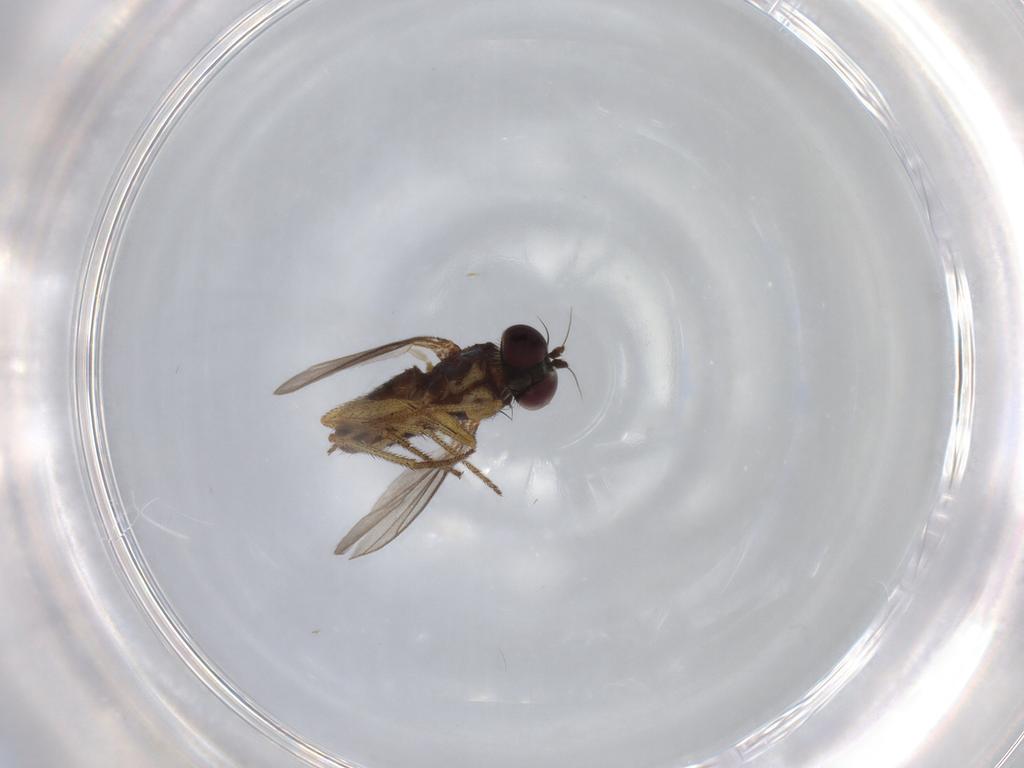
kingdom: Animalia
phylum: Arthropoda
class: Insecta
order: Diptera
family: Dolichopodidae
